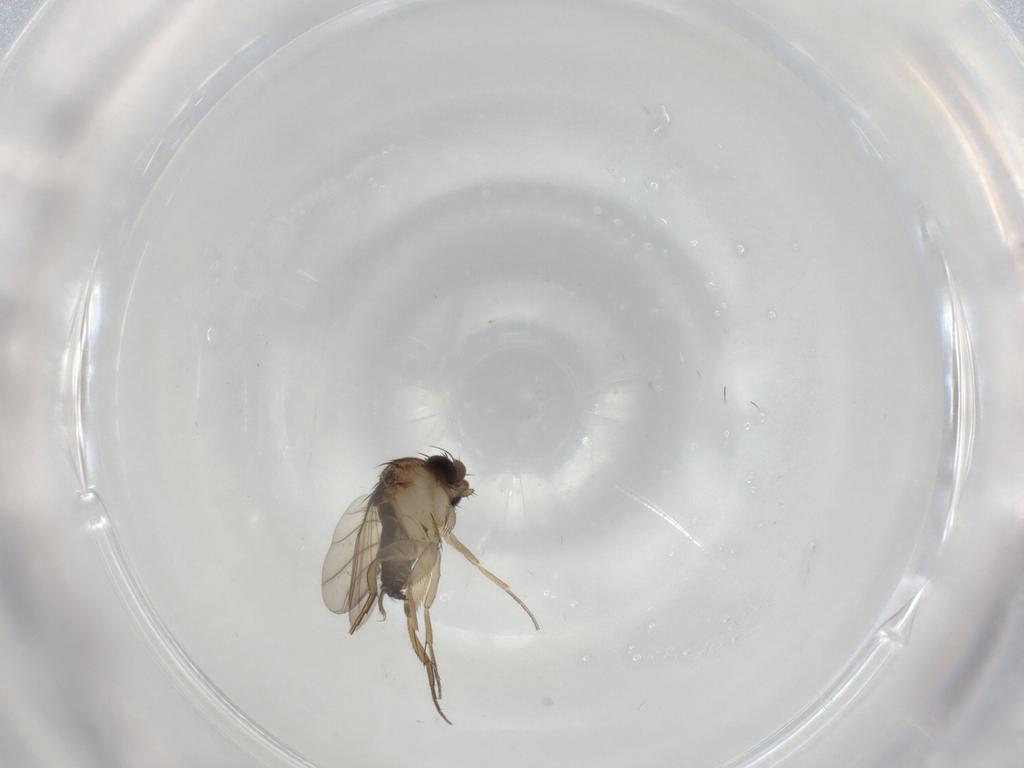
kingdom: Animalia
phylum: Arthropoda
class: Insecta
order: Diptera
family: Phoridae
